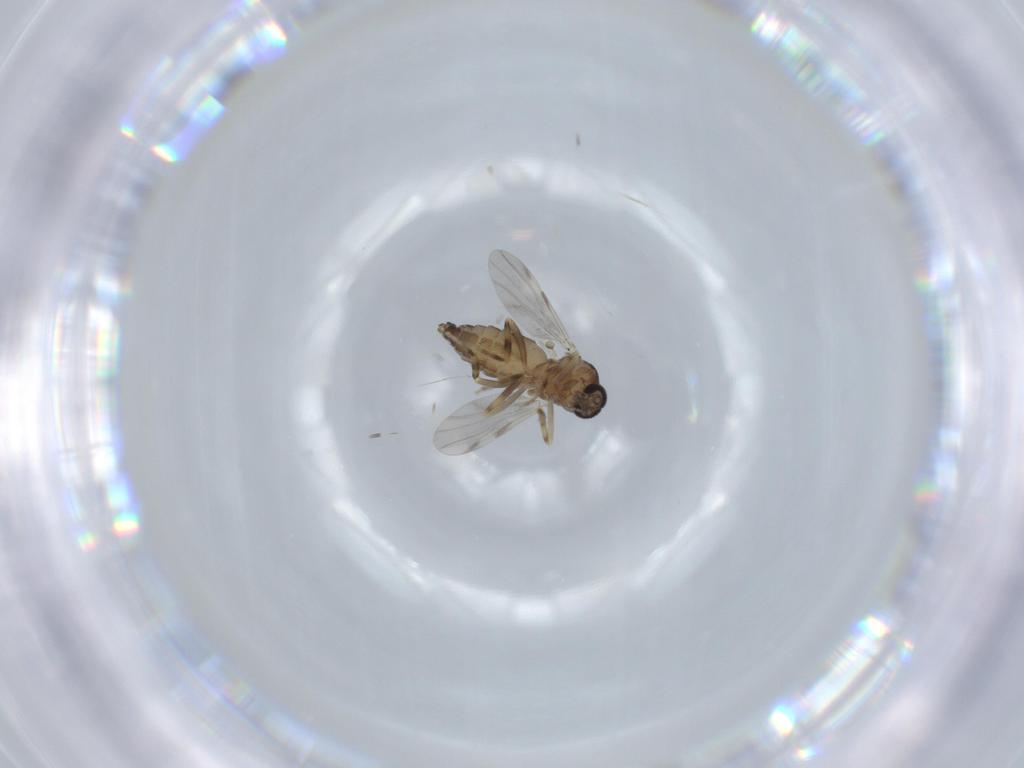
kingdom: Animalia
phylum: Arthropoda
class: Insecta
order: Diptera
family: Ceratopogonidae
